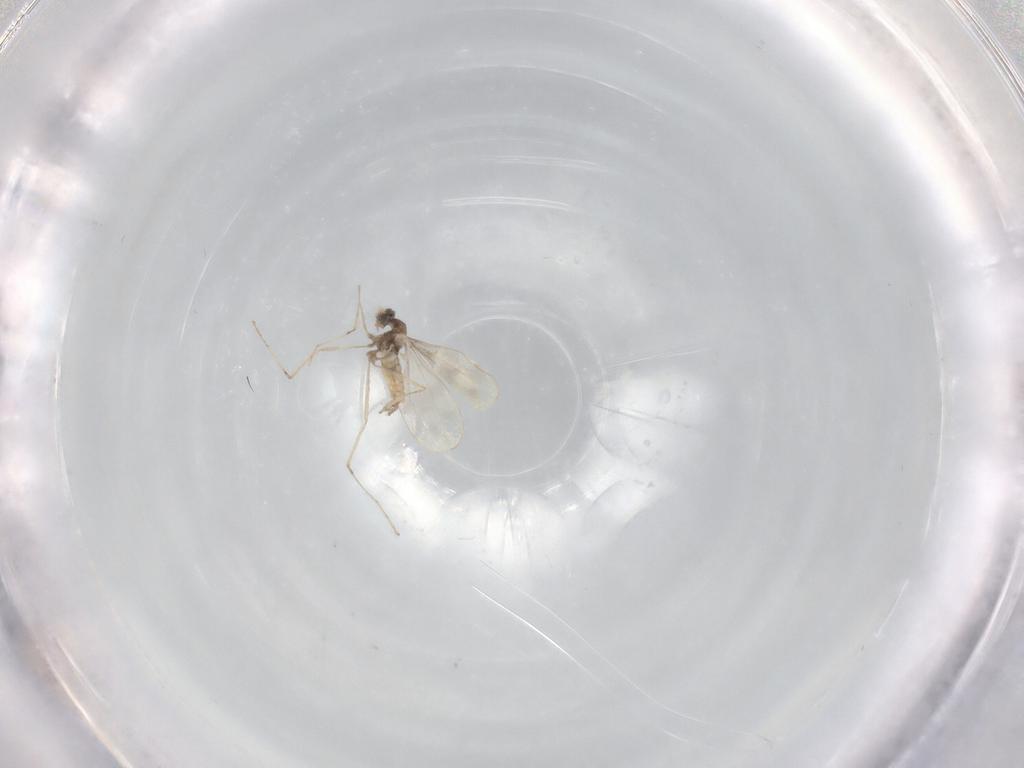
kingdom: Animalia
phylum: Arthropoda
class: Insecta
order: Diptera
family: Cecidomyiidae
